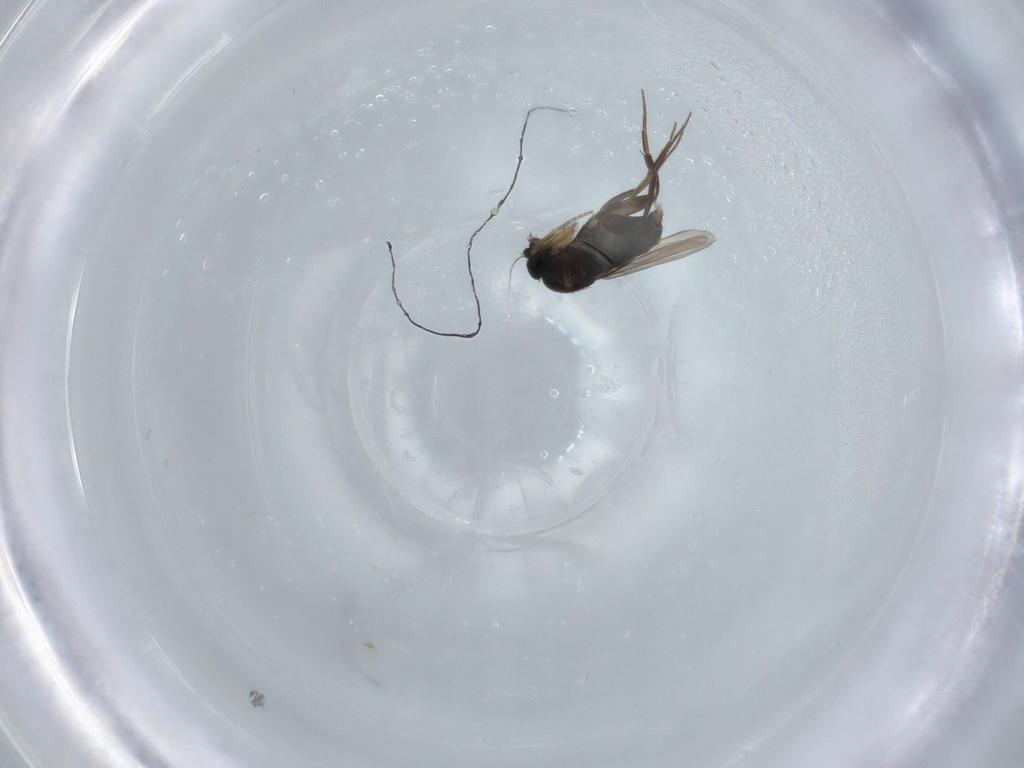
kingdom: Animalia
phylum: Arthropoda
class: Insecta
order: Diptera
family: Phoridae
